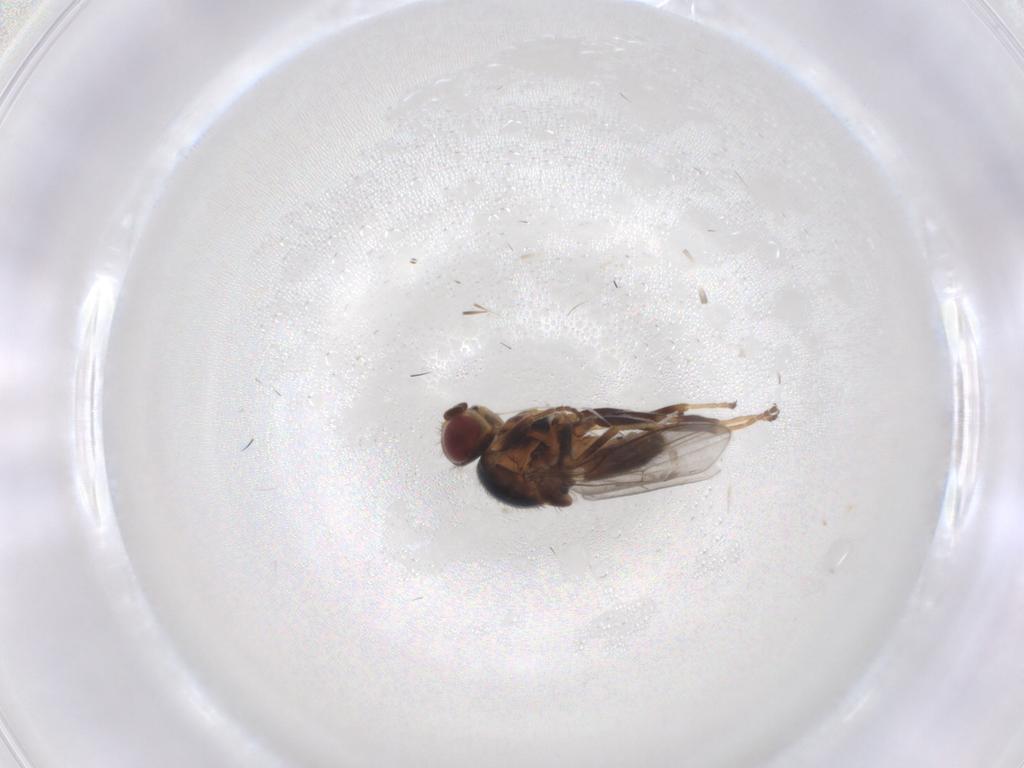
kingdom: Animalia
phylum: Arthropoda
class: Insecta
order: Diptera
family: Chloropidae
